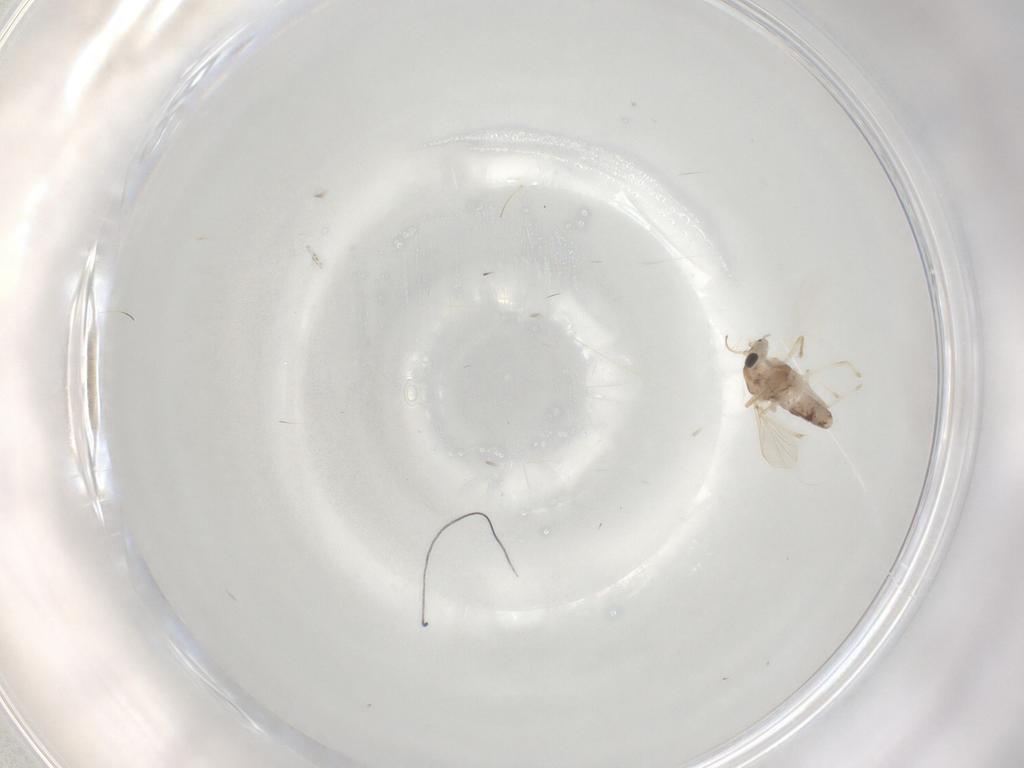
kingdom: Animalia
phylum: Arthropoda
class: Insecta
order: Diptera
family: Chironomidae
